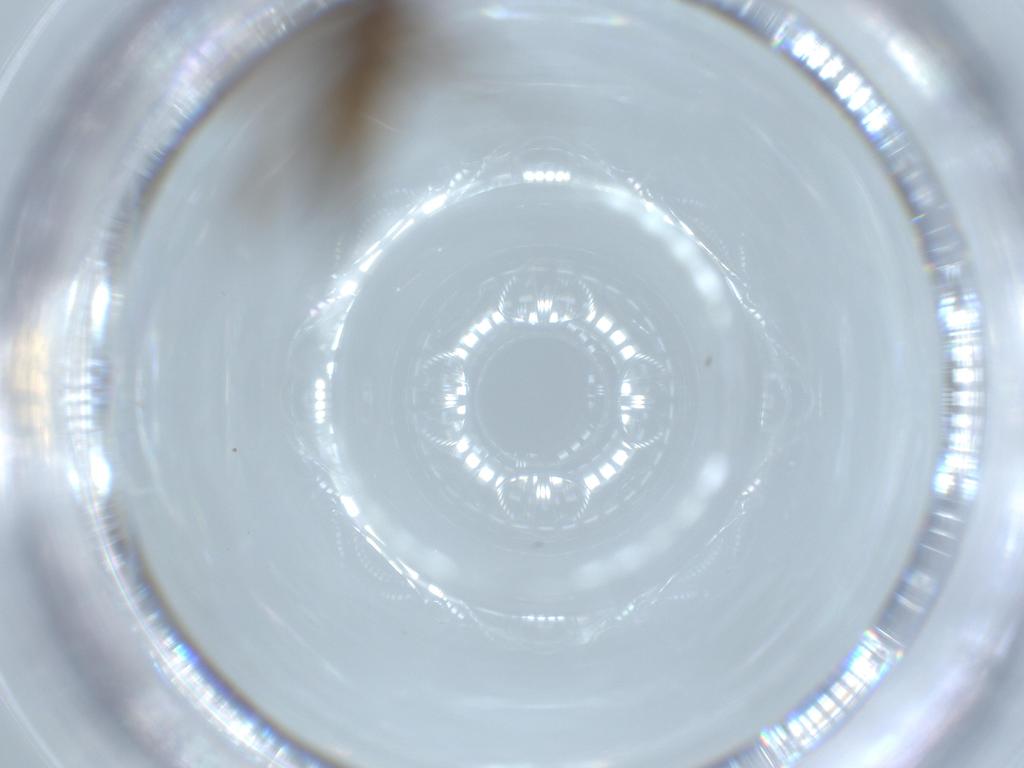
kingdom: Animalia
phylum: Arthropoda
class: Insecta
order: Diptera
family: Sciaridae
